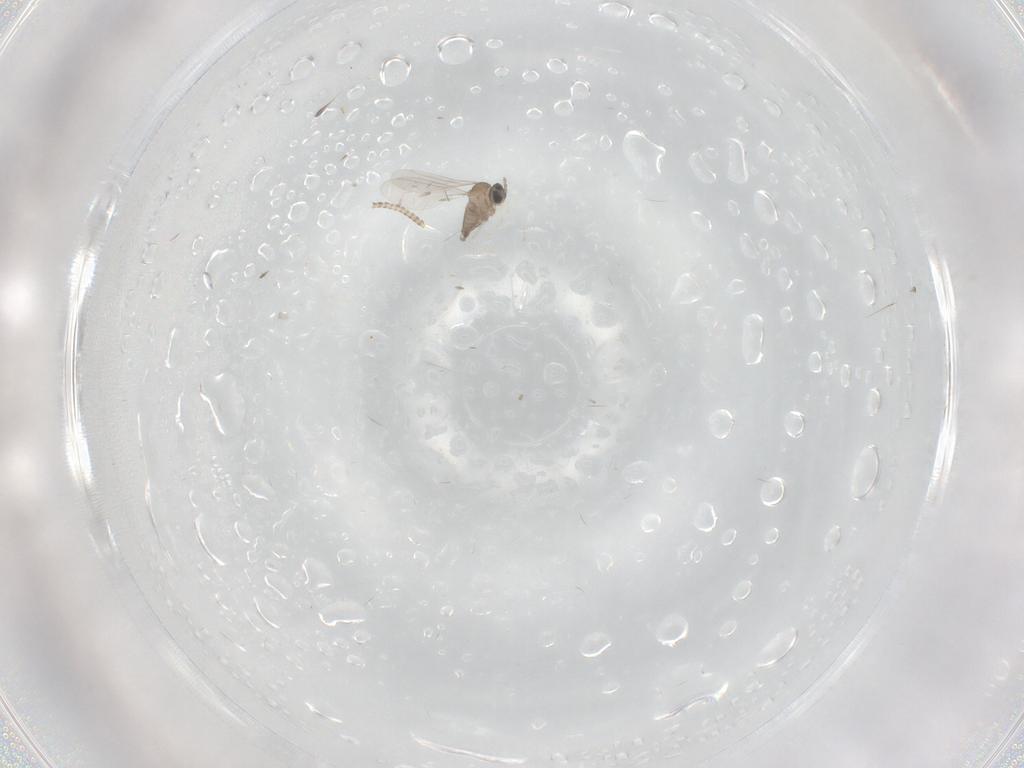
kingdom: Animalia
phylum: Arthropoda
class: Insecta
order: Diptera
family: Cecidomyiidae
